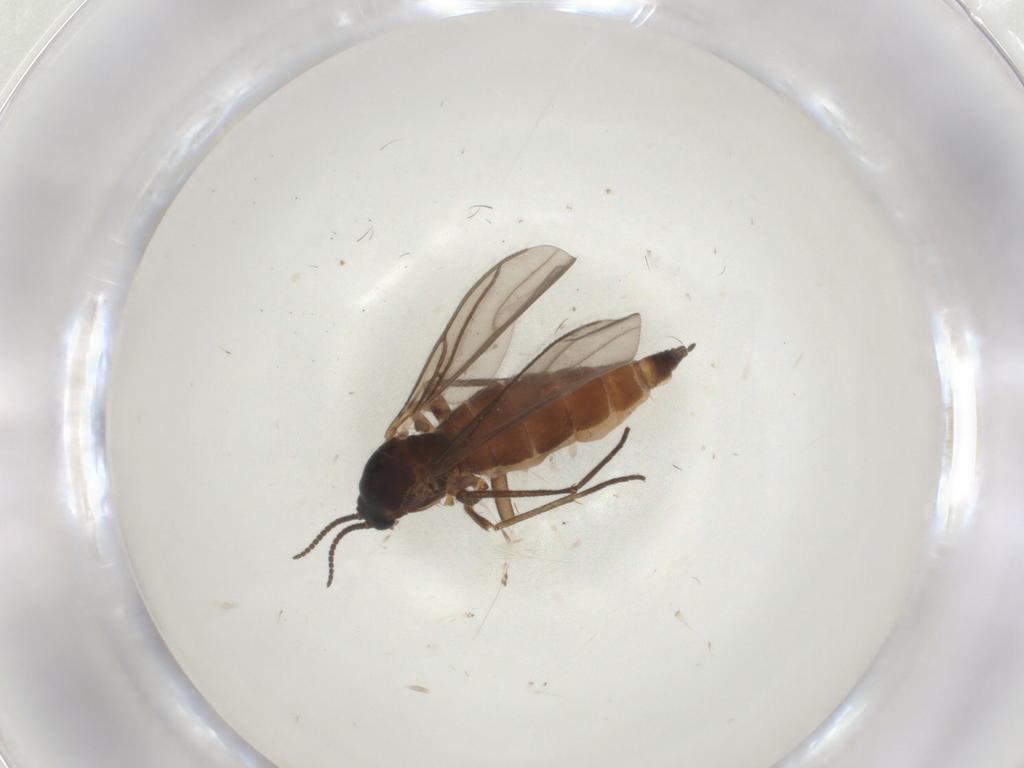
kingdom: Animalia
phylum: Arthropoda
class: Insecta
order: Diptera
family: Sciaridae
